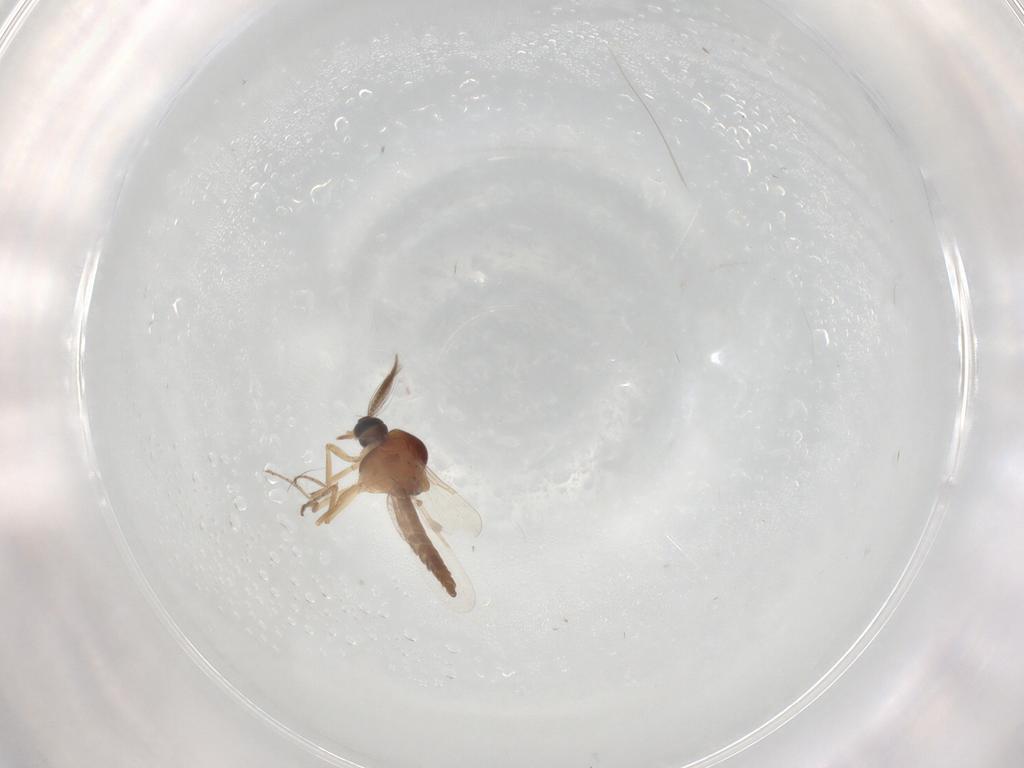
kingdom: Animalia
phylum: Arthropoda
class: Insecta
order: Diptera
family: Ceratopogonidae
